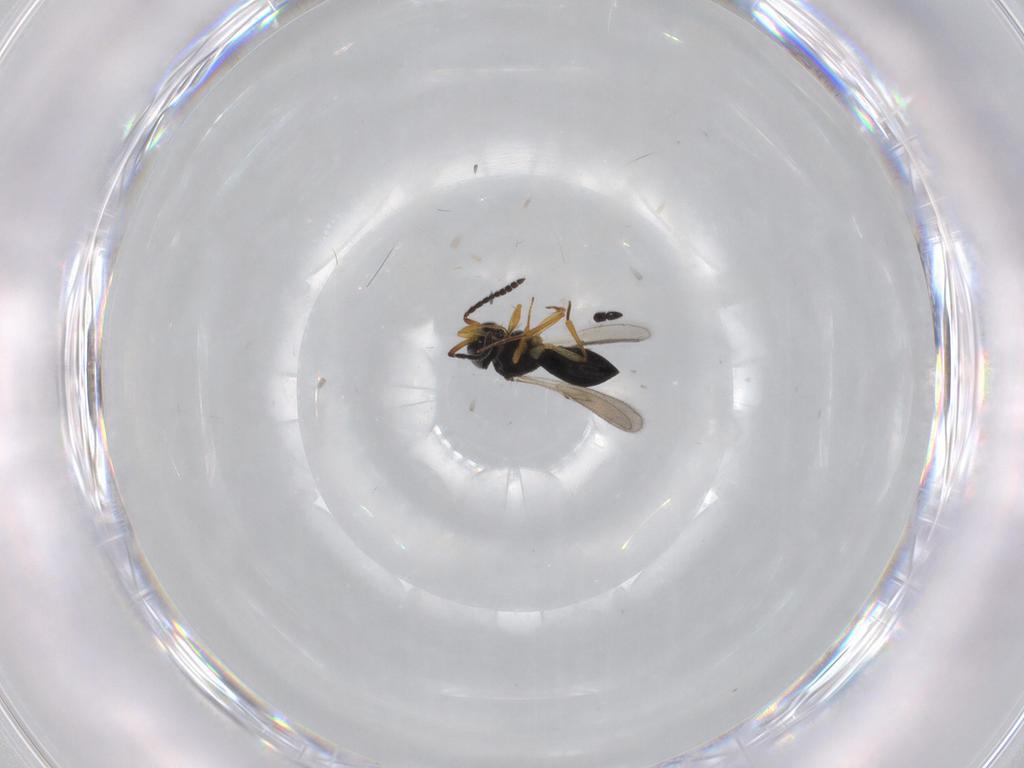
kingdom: Animalia
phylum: Arthropoda
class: Insecta
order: Hymenoptera
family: Scelionidae
